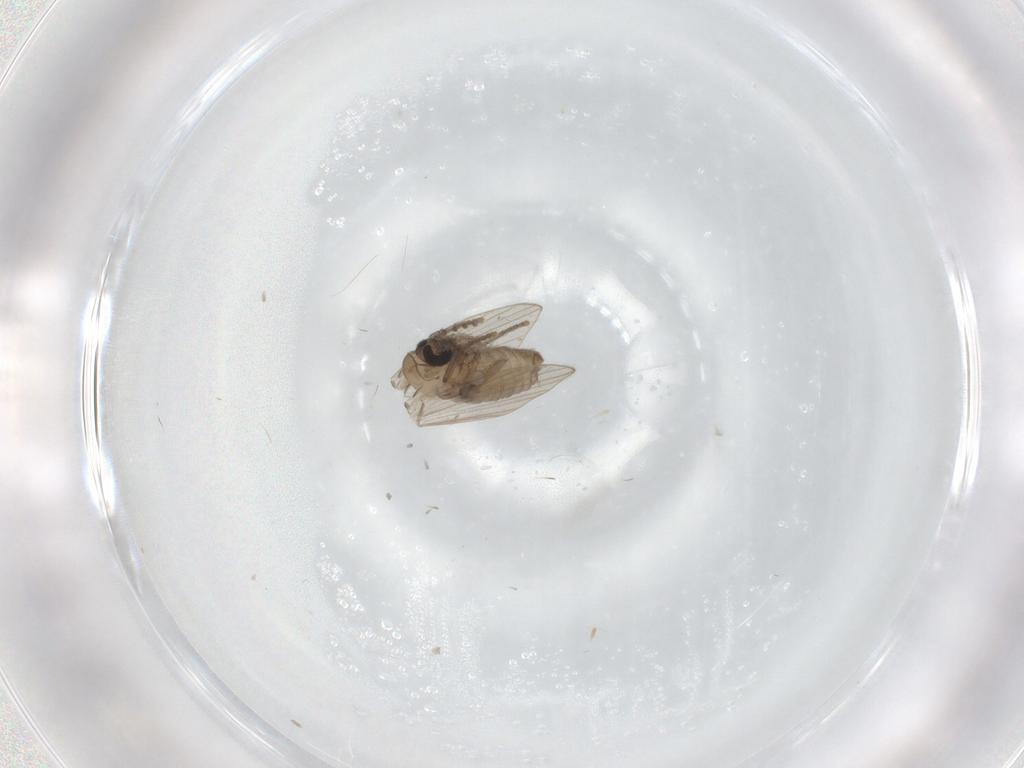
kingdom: Animalia
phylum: Arthropoda
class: Insecta
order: Diptera
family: Psychodidae
